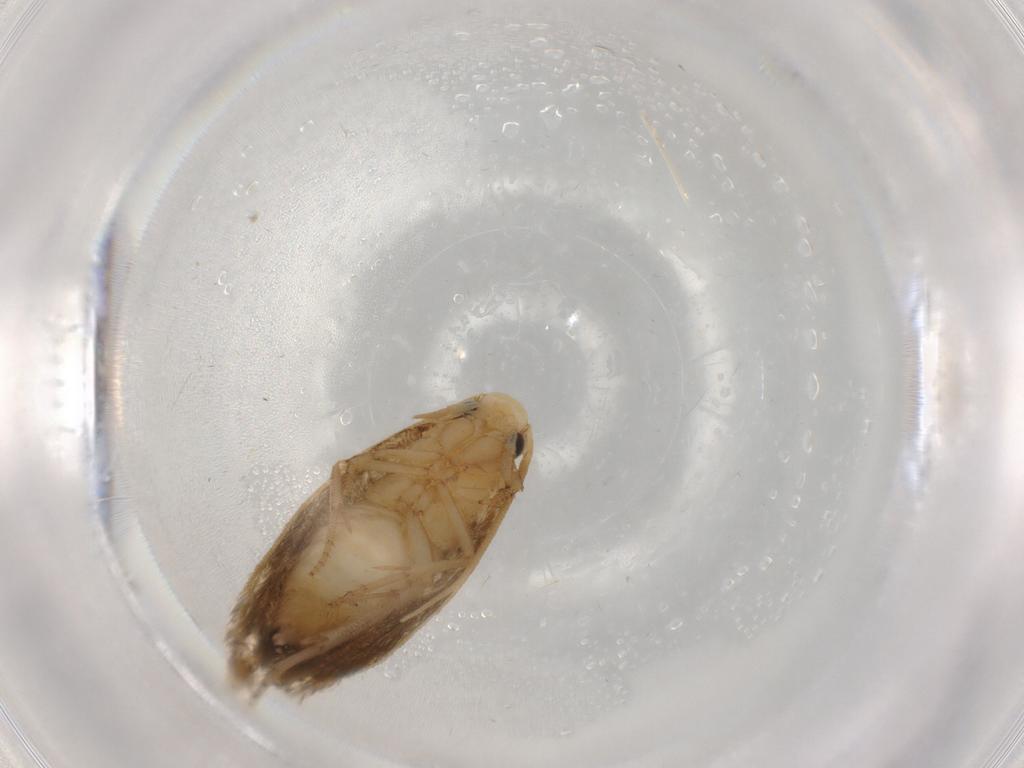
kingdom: Animalia
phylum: Arthropoda
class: Insecta
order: Lepidoptera
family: Tineidae
